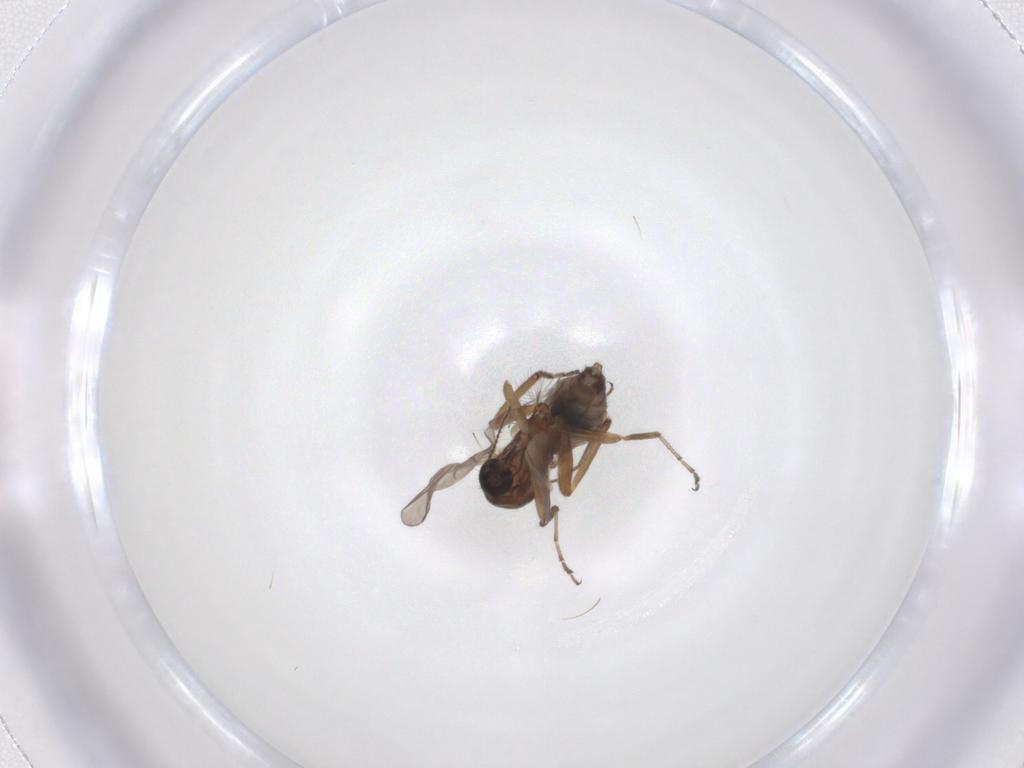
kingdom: Animalia
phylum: Arthropoda
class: Insecta
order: Diptera
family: Ceratopogonidae
